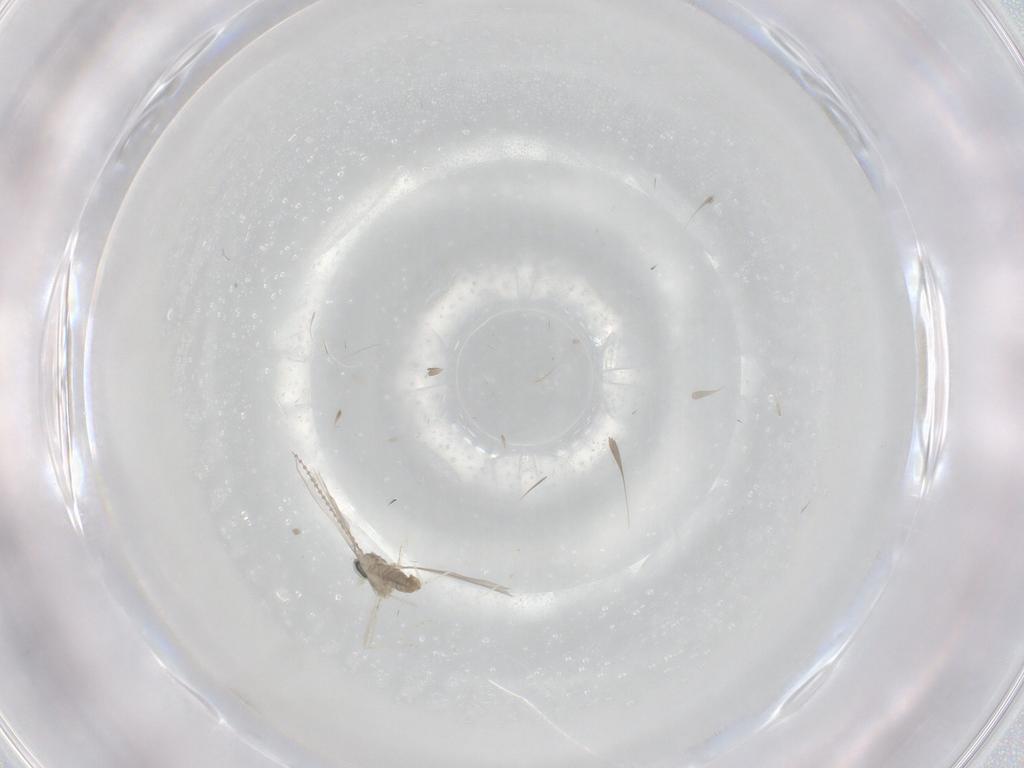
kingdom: Animalia
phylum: Arthropoda
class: Insecta
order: Diptera
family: Cecidomyiidae
